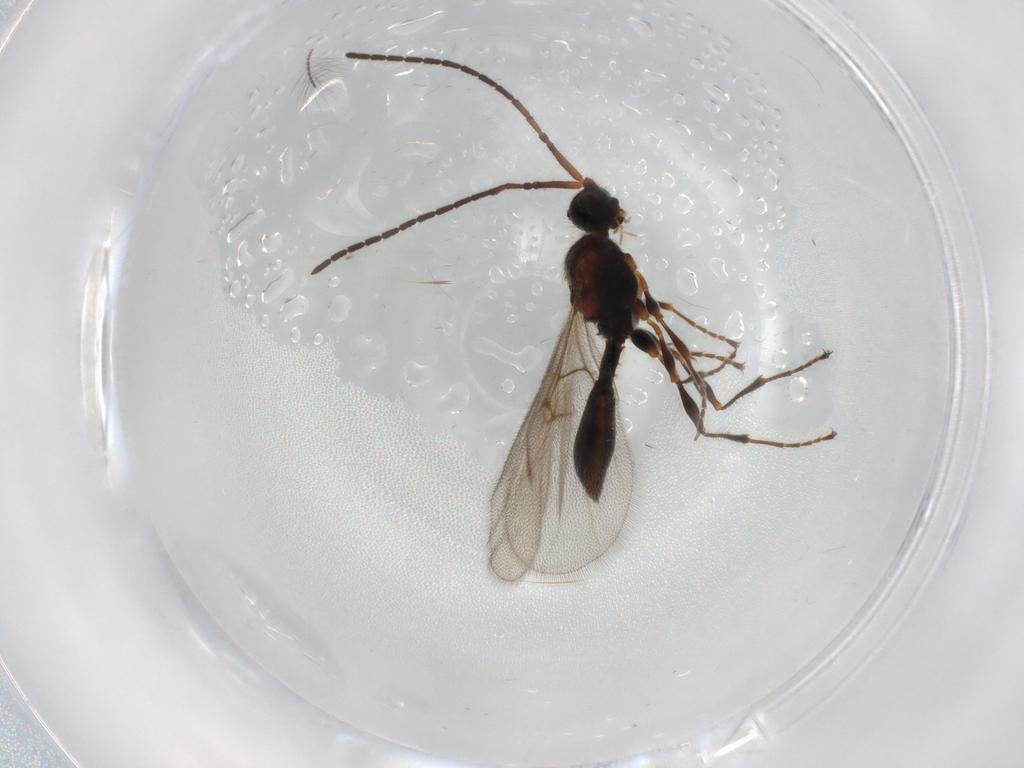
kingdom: Animalia
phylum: Arthropoda
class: Insecta
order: Hymenoptera
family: Diapriidae
